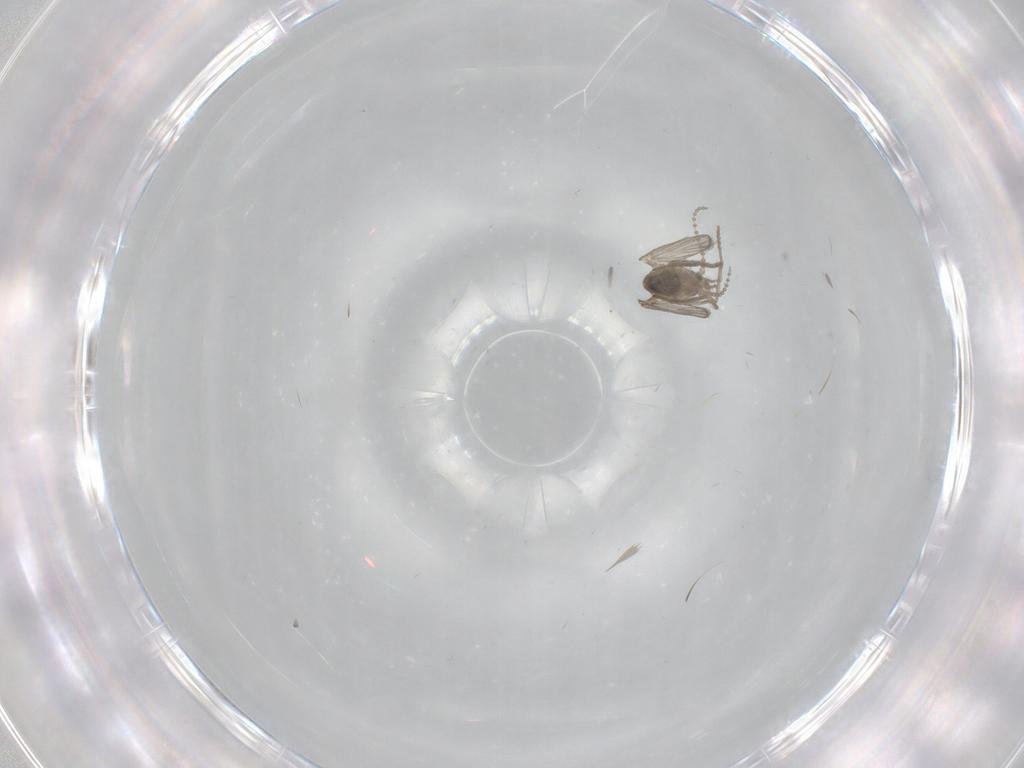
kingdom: Animalia
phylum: Arthropoda
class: Insecta
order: Diptera
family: Psychodidae
